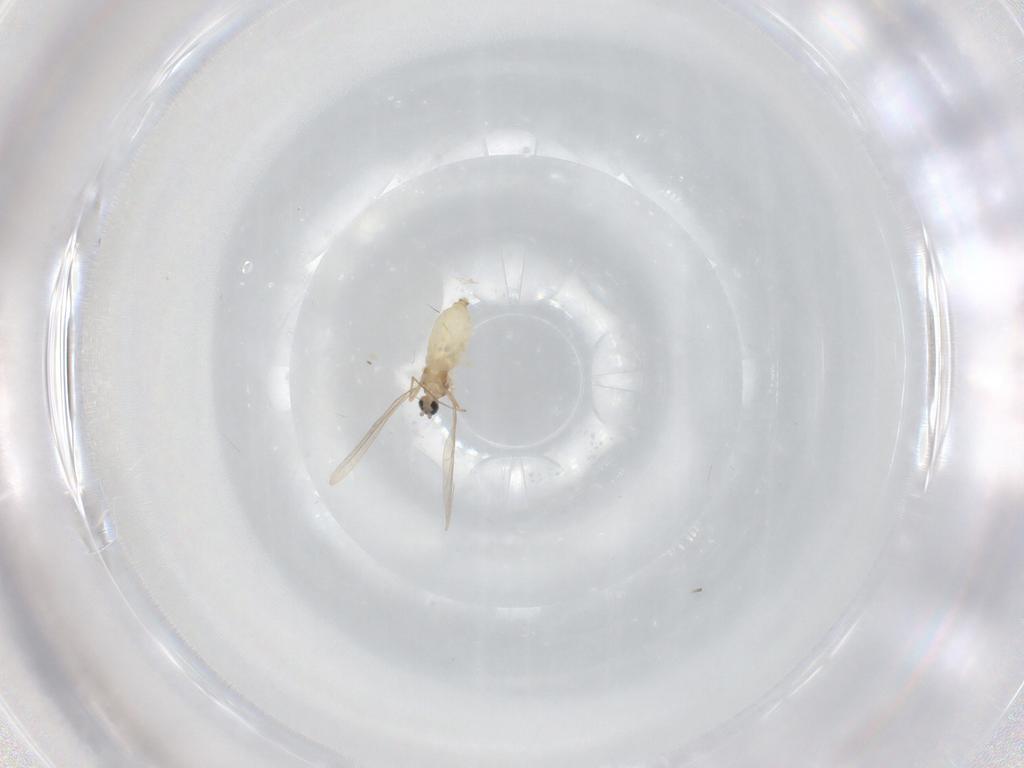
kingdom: Animalia
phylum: Arthropoda
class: Insecta
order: Diptera
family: Cecidomyiidae
